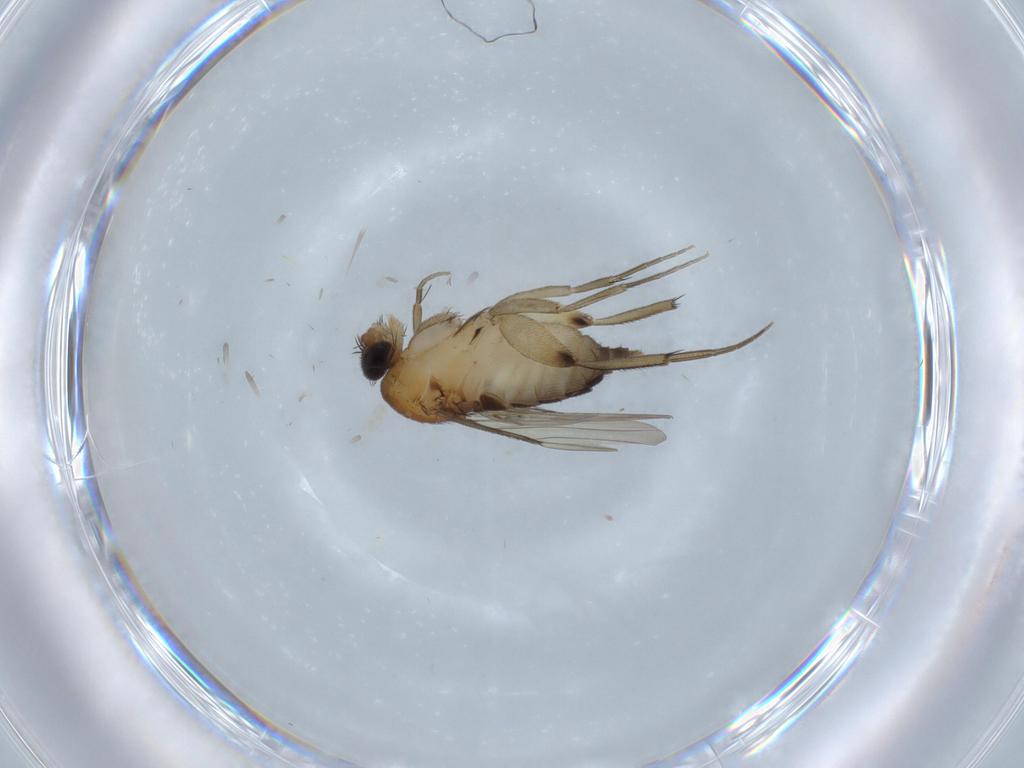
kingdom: Animalia
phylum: Arthropoda
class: Insecta
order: Diptera
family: Phoridae
